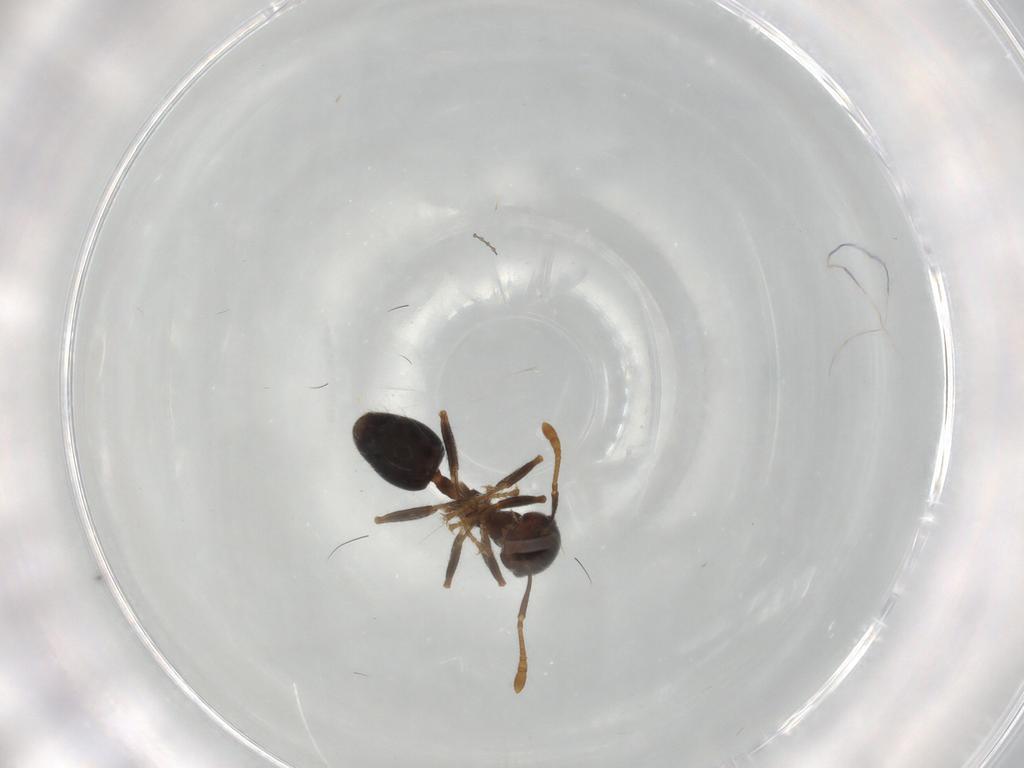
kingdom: Animalia
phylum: Arthropoda
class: Insecta
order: Hymenoptera
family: Formicidae
